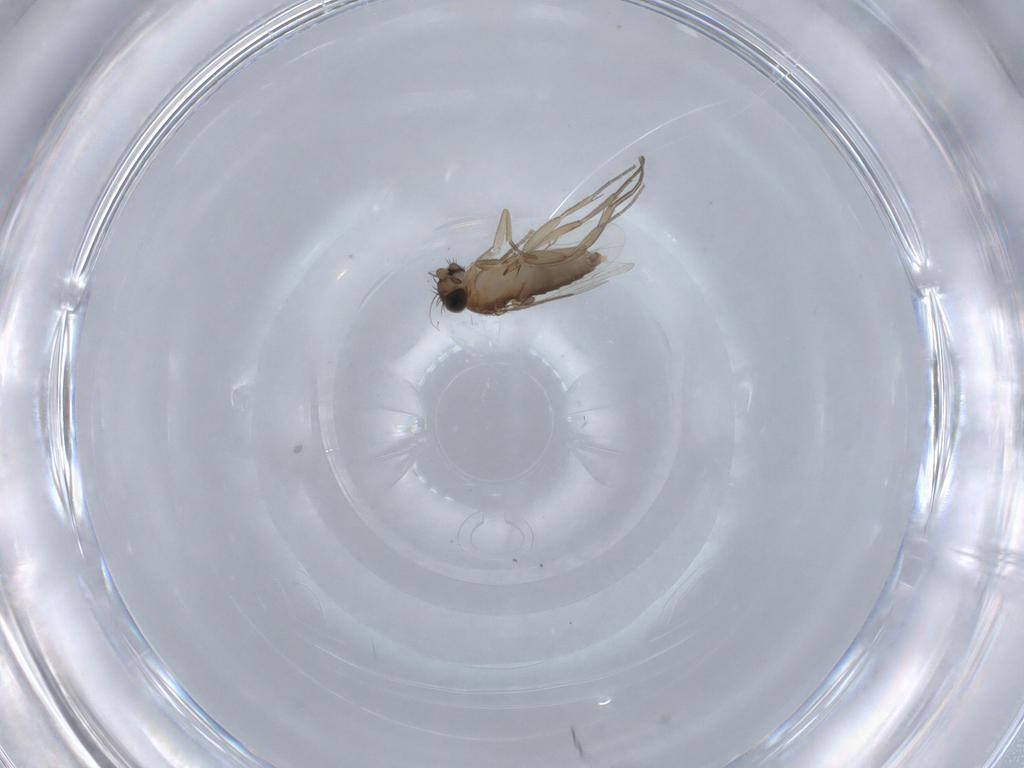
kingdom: Animalia
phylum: Arthropoda
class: Insecta
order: Diptera
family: Phoridae
